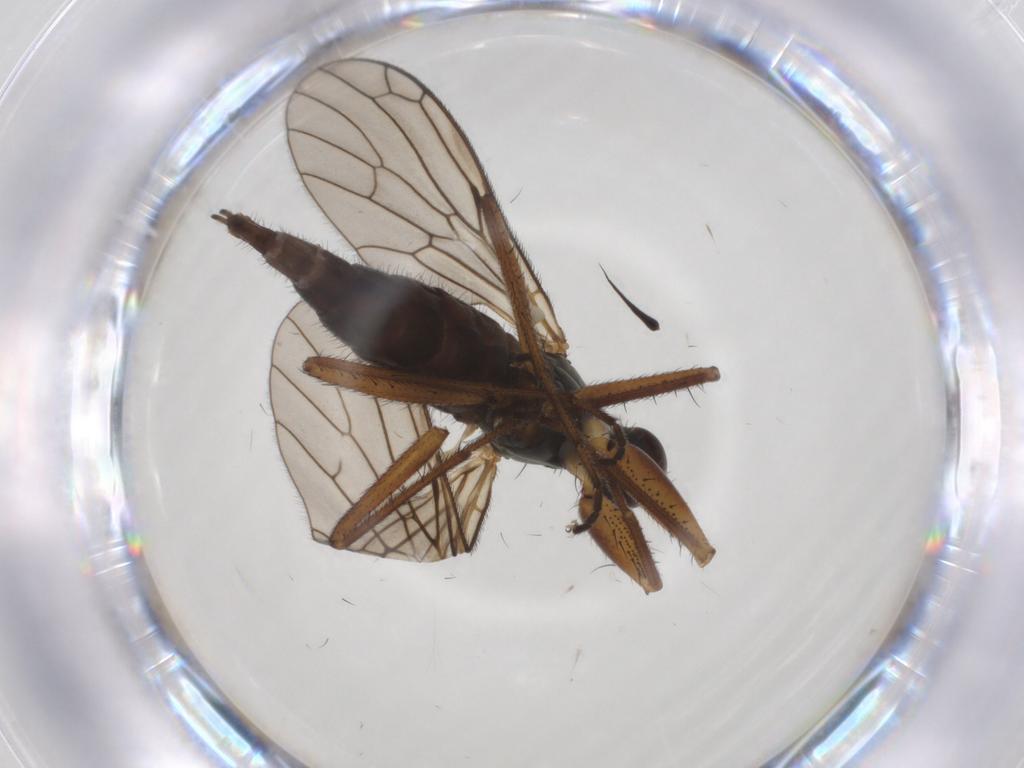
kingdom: Animalia
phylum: Arthropoda
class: Insecta
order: Diptera
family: Empididae
